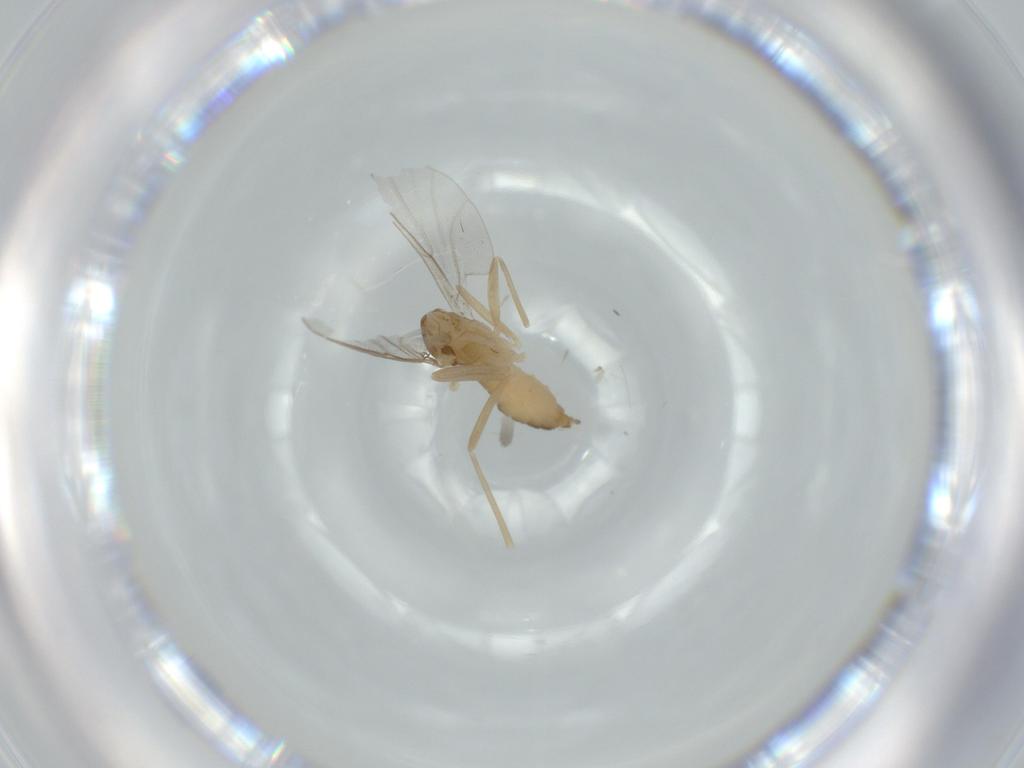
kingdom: Animalia
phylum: Arthropoda
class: Insecta
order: Diptera
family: Cecidomyiidae
